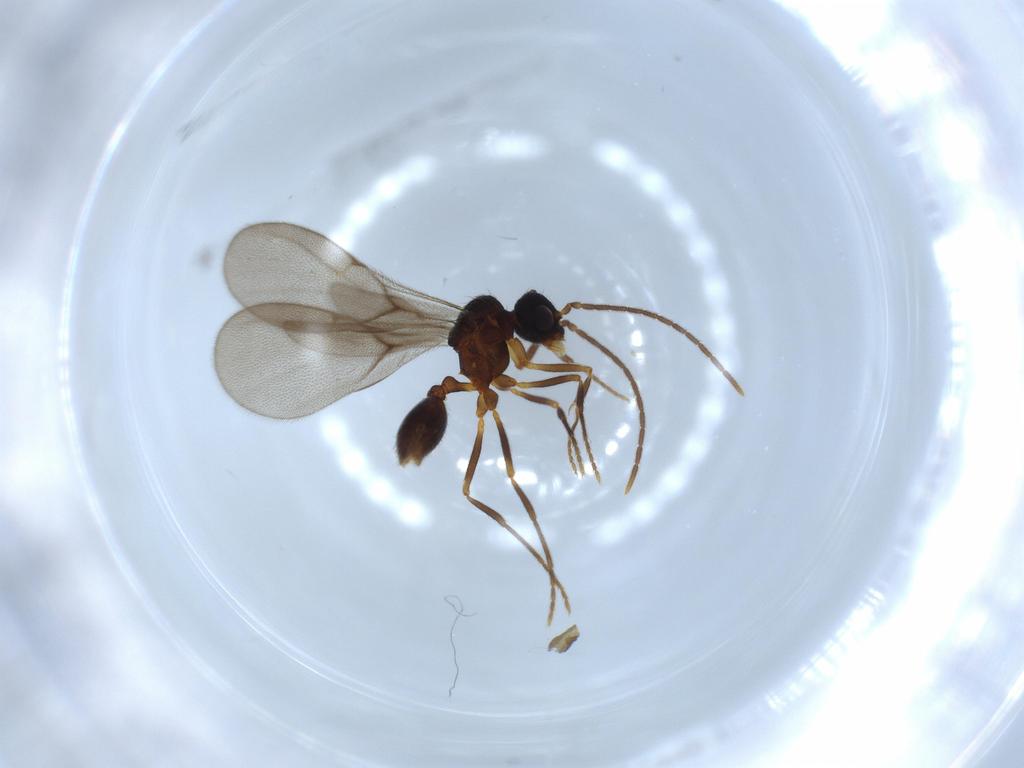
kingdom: Animalia
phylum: Arthropoda
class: Insecta
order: Hymenoptera
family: Formicidae
